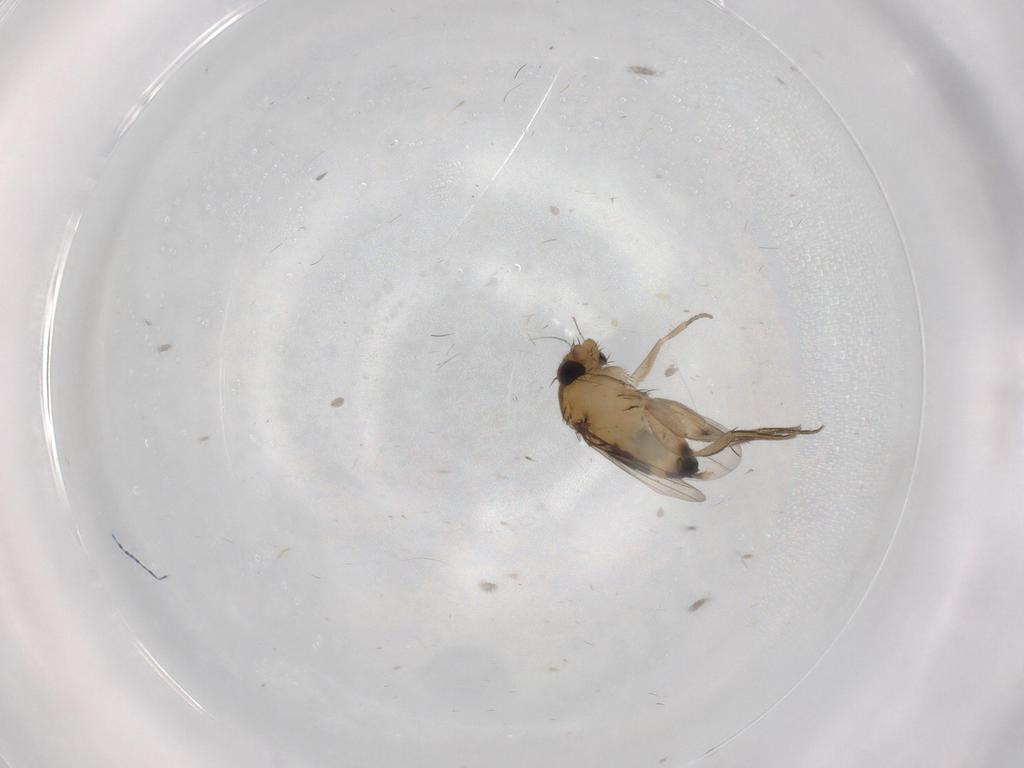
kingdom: Animalia
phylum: Arthropoda
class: Insecta
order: Diptera
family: Phoridae
